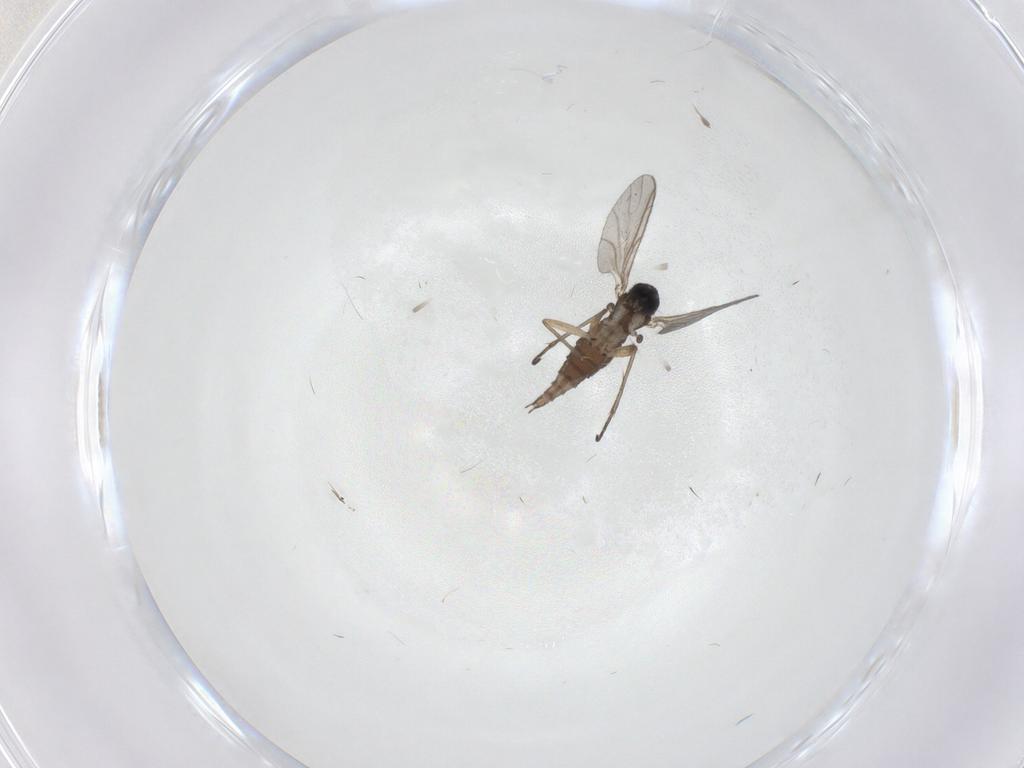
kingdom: Animalia
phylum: Arthropoda
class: Insecta
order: Diptera
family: Sciaridae
